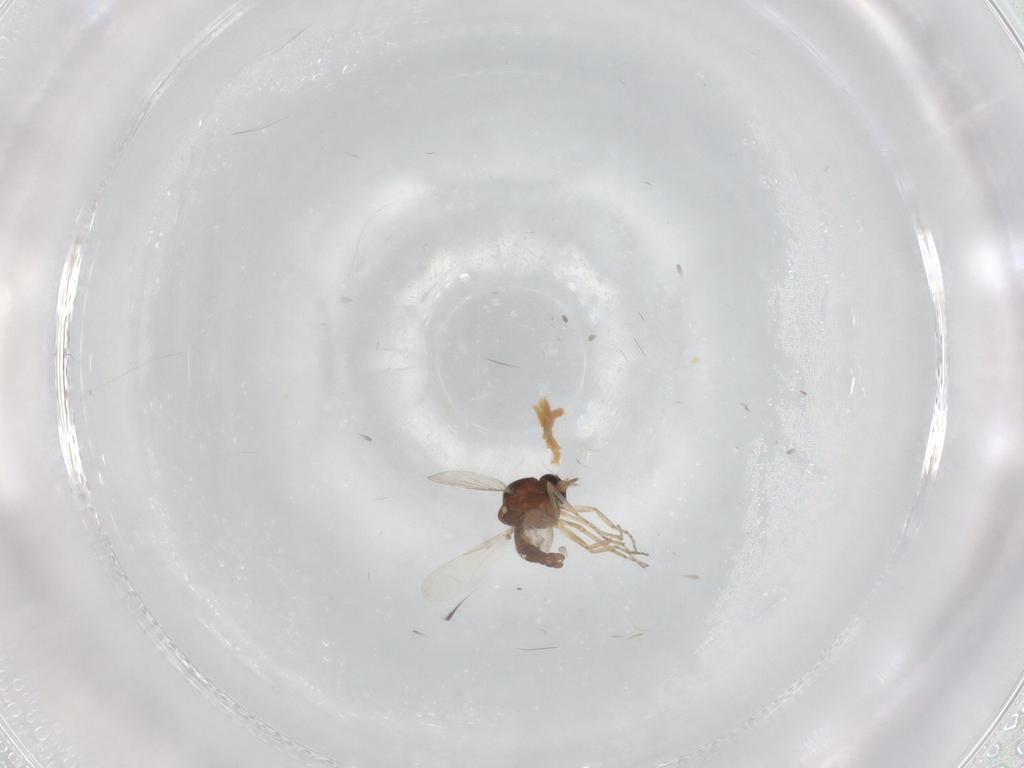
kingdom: Animalia
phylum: Arthropoda
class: Insecta
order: Diptera
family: Ceratopogonidae
